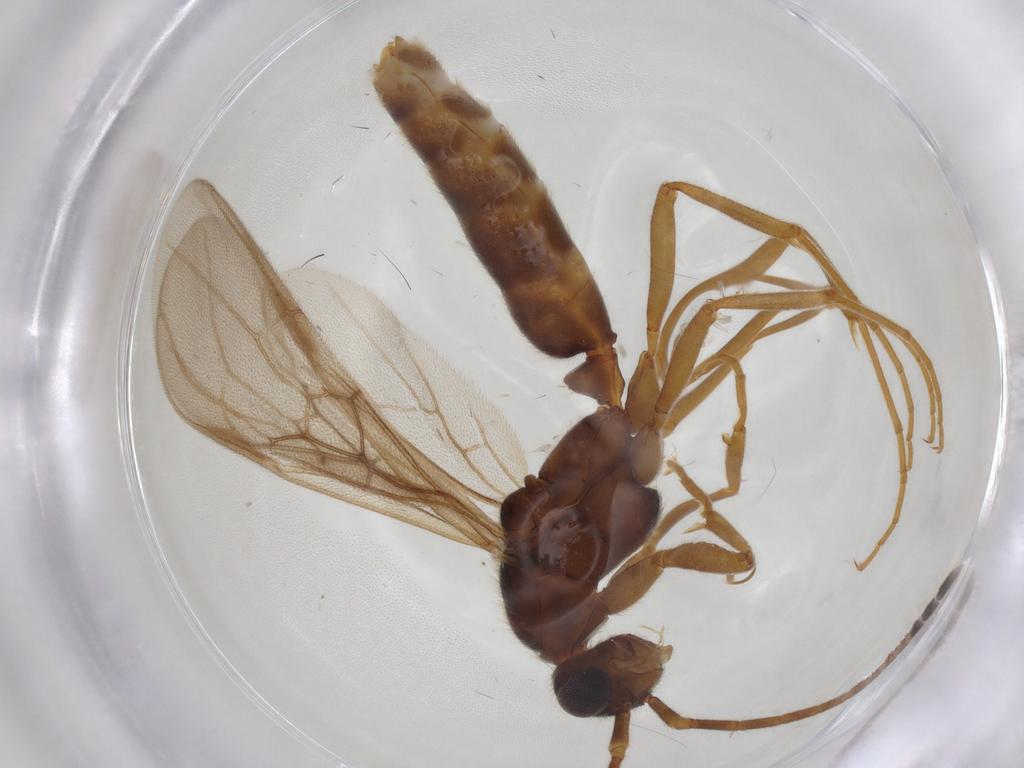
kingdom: Animalia
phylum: Arthropoda
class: Insecta
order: Hymenoptera
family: Formicidae
